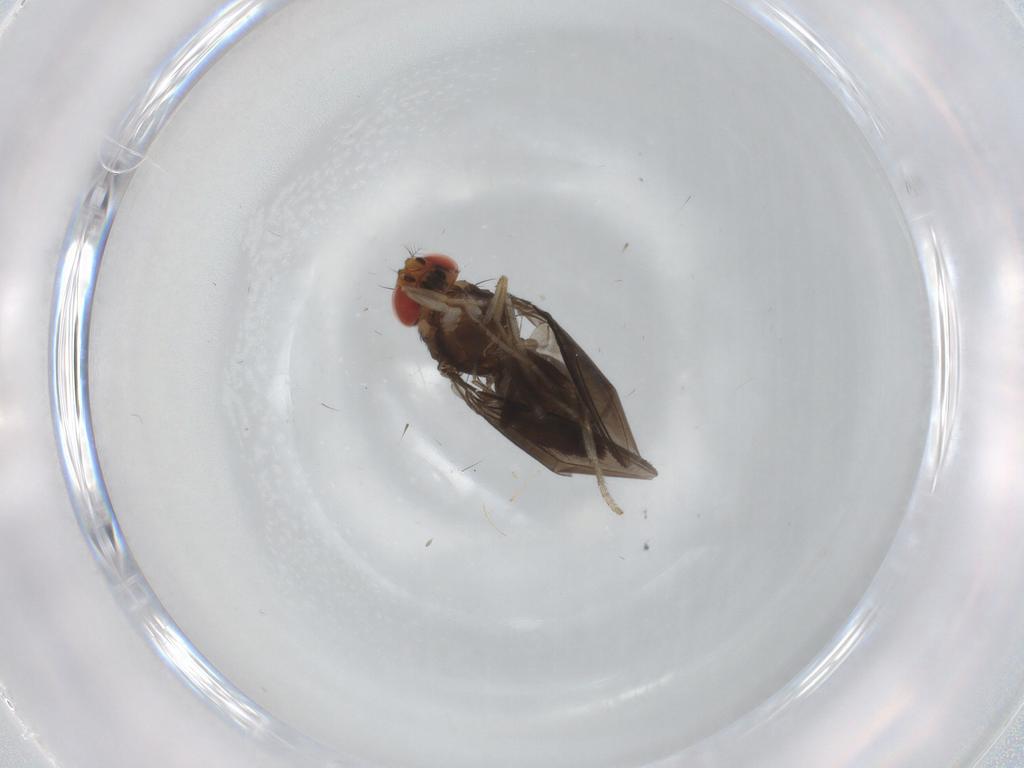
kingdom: Animalia
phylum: Arthropoda
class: Insecta
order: Diptera
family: Drosophilidae
